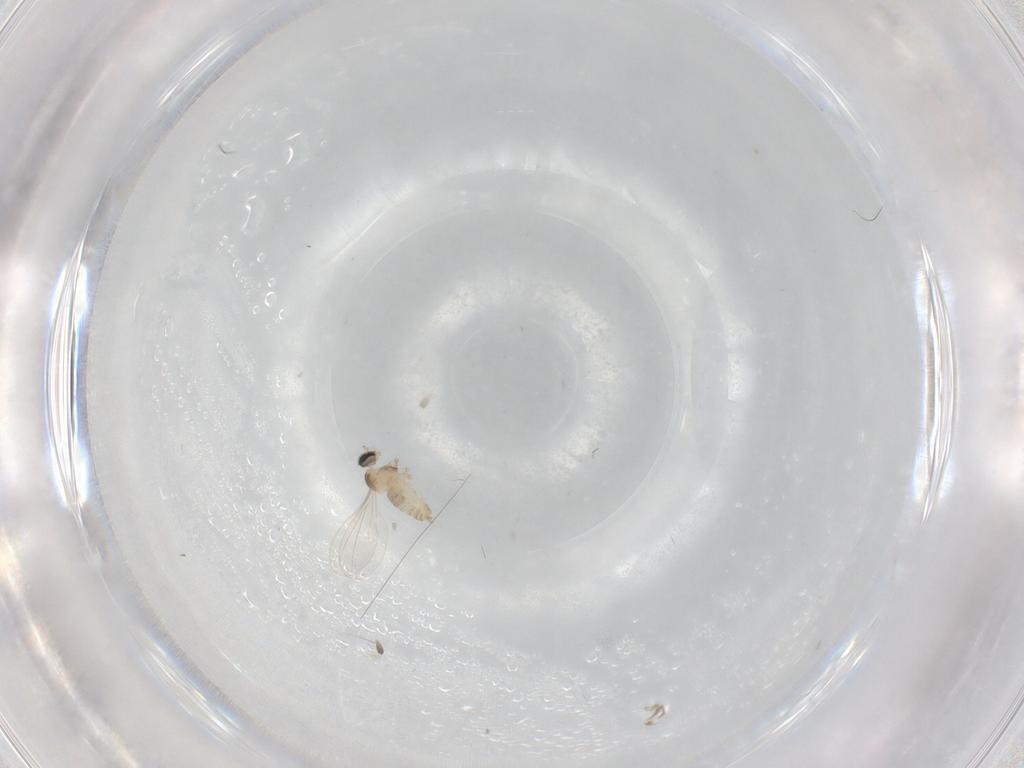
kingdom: Animalia
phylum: Arthropoda
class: Insecta
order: Diptera
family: Cecidomyiidae
